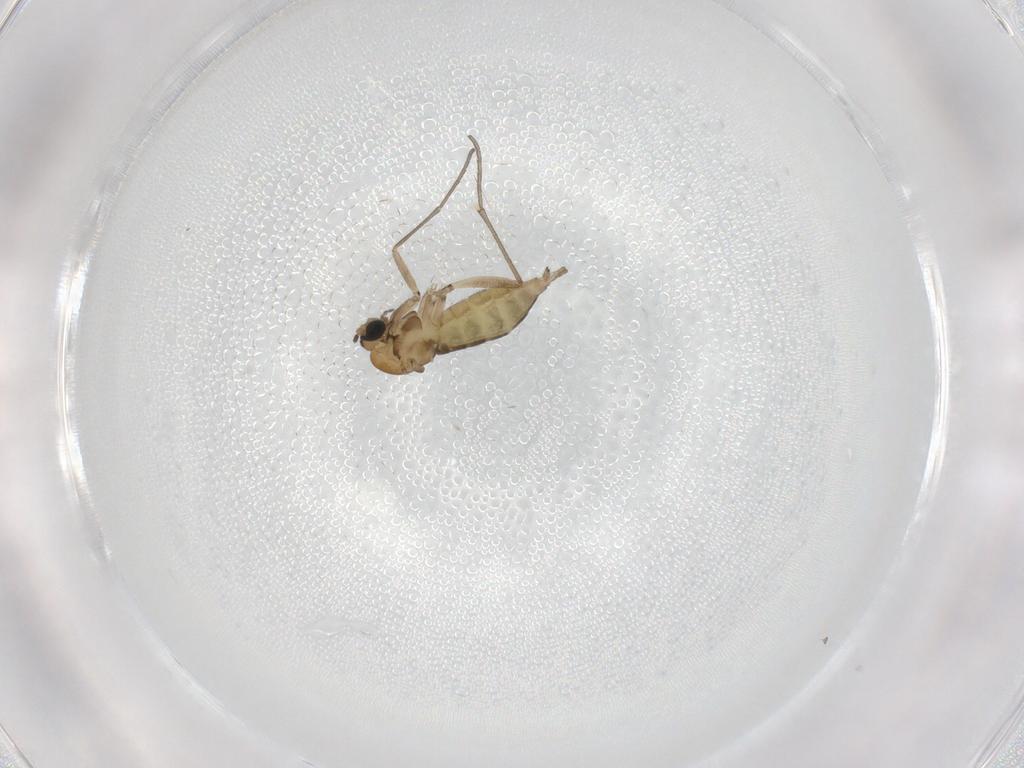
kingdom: Animalia
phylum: Arthropoda
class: Insecta
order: Diptera
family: Sciaridae
